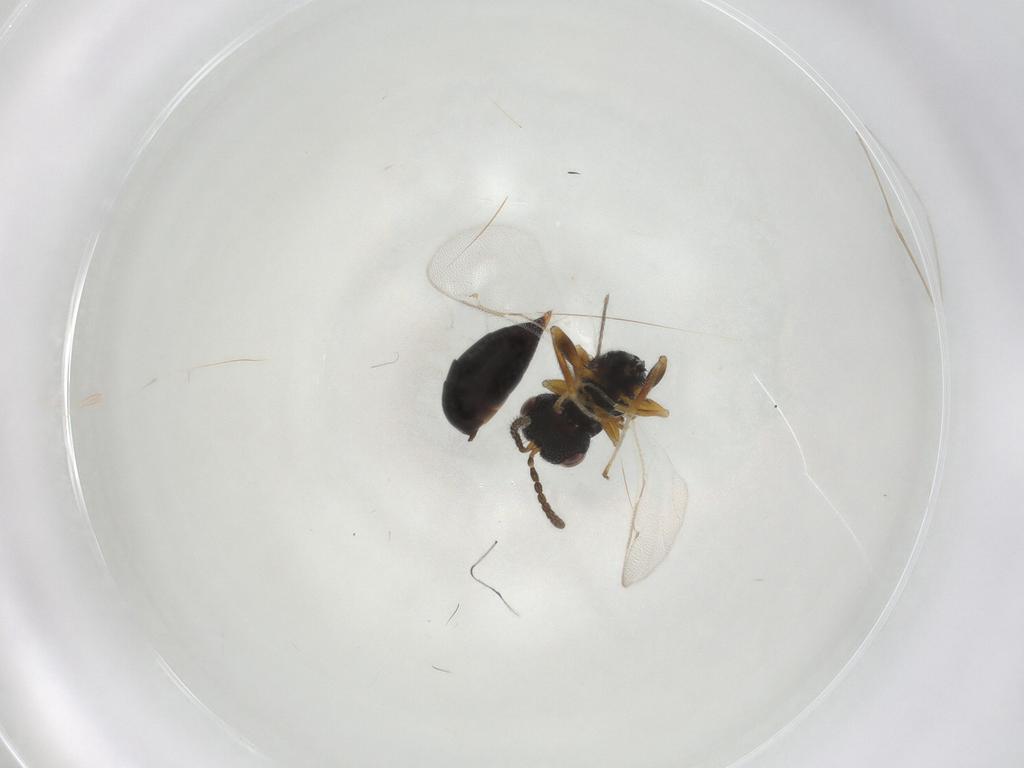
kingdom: Animalia
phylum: Arthropoda
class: Insecta
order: Hymenoptera
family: Eurytomidae
